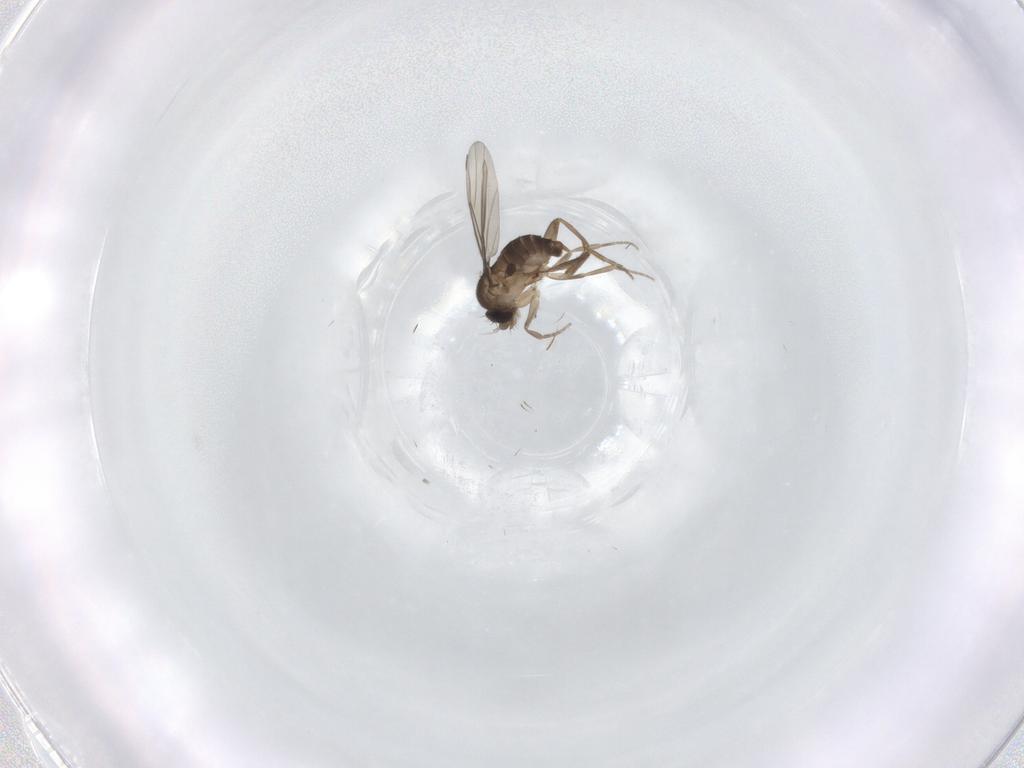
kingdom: Animalia
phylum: Arthropoda
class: Insecta
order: Diptera
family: Phoridae
